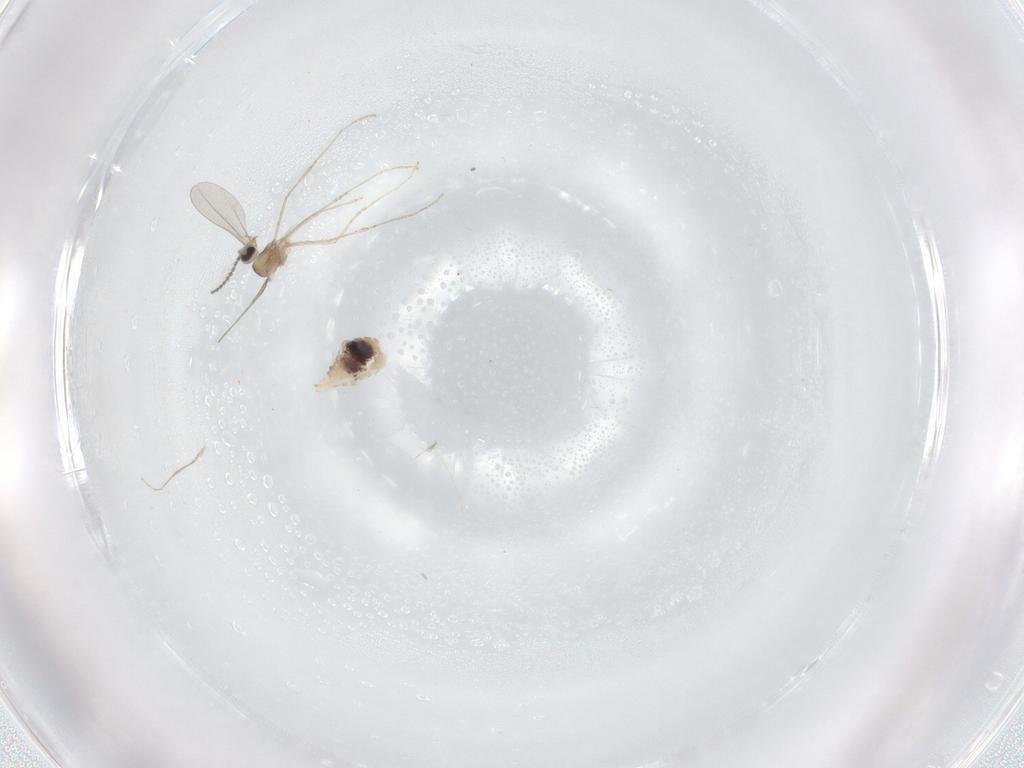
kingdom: Animalia
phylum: Arthropoda
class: Insecta
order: Diptera
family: Cecidomyiidae
